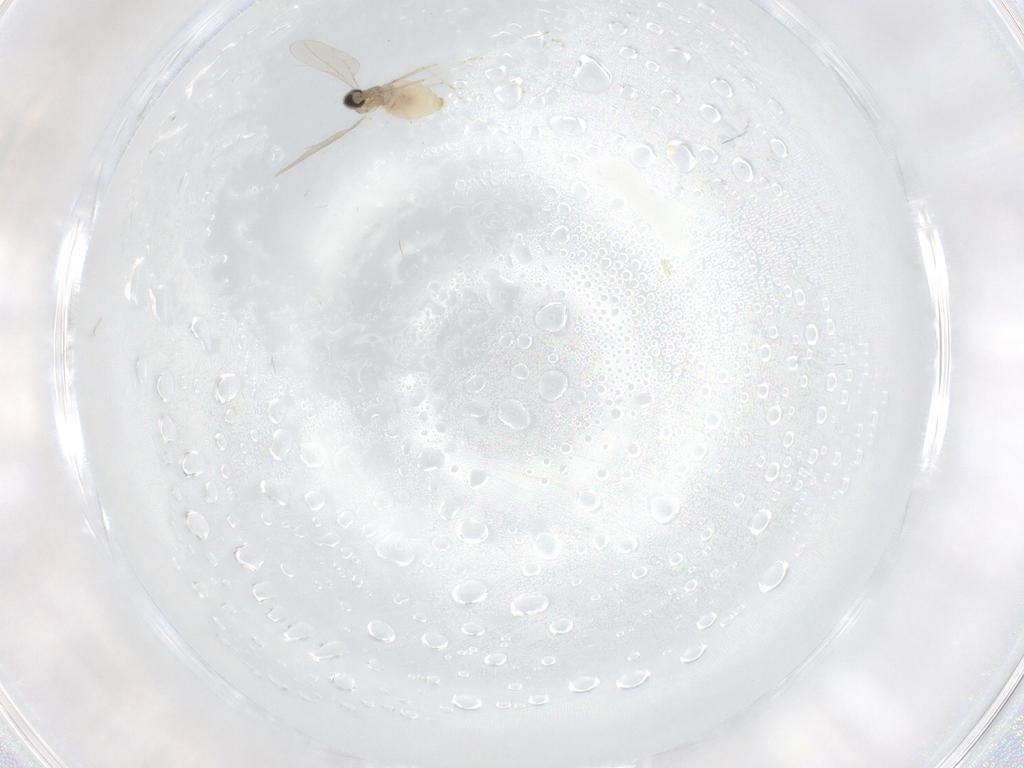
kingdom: Animalia
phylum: Arthropoda
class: Insecta
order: Diptera
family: Cecidomyiidae
